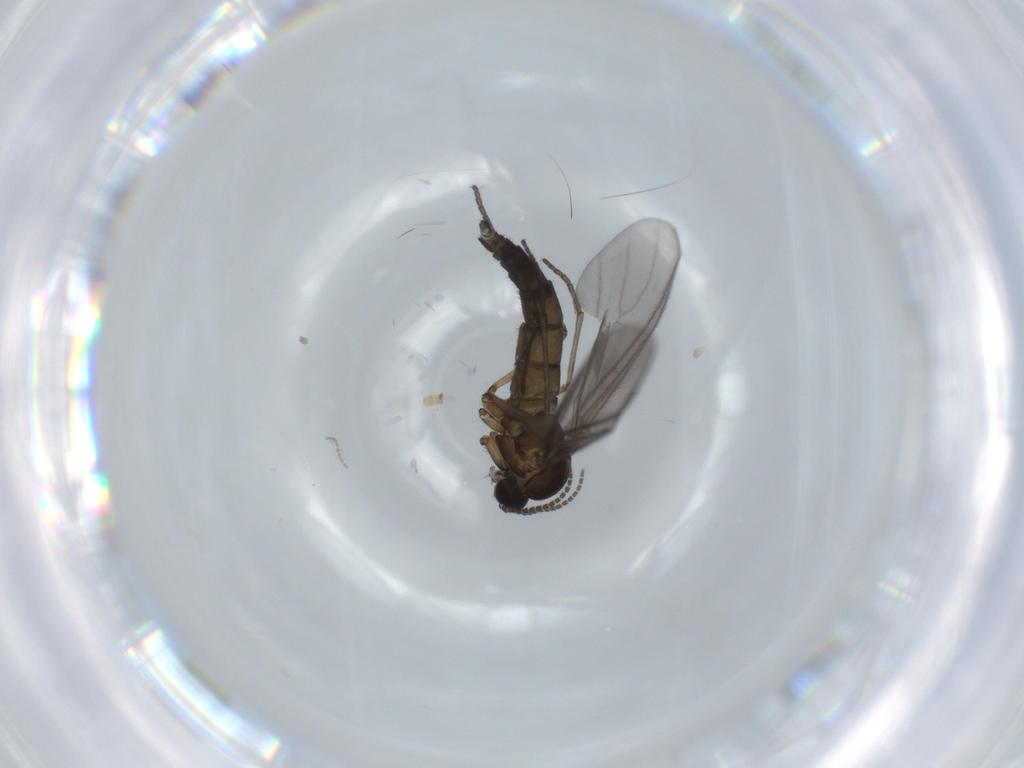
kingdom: Animalia
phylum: Arthropoda
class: Insecta
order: Diptera
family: Sciaridae
